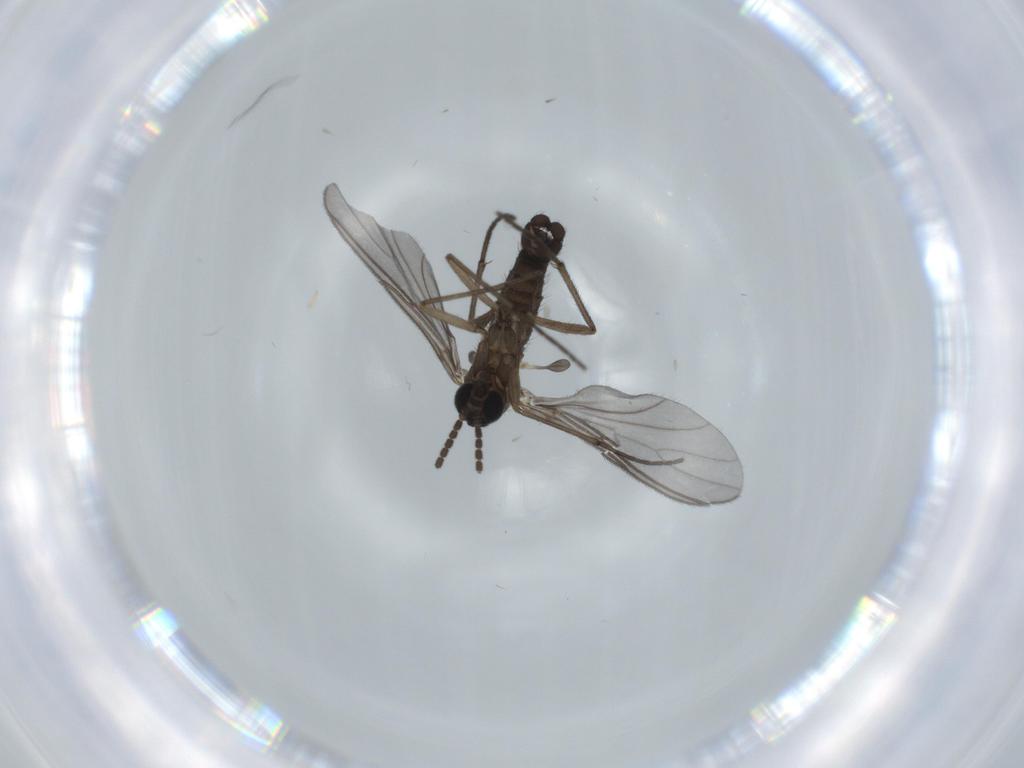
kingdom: Animalia
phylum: Arthropoda
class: Insecta
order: Diptera
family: Sciaridae
